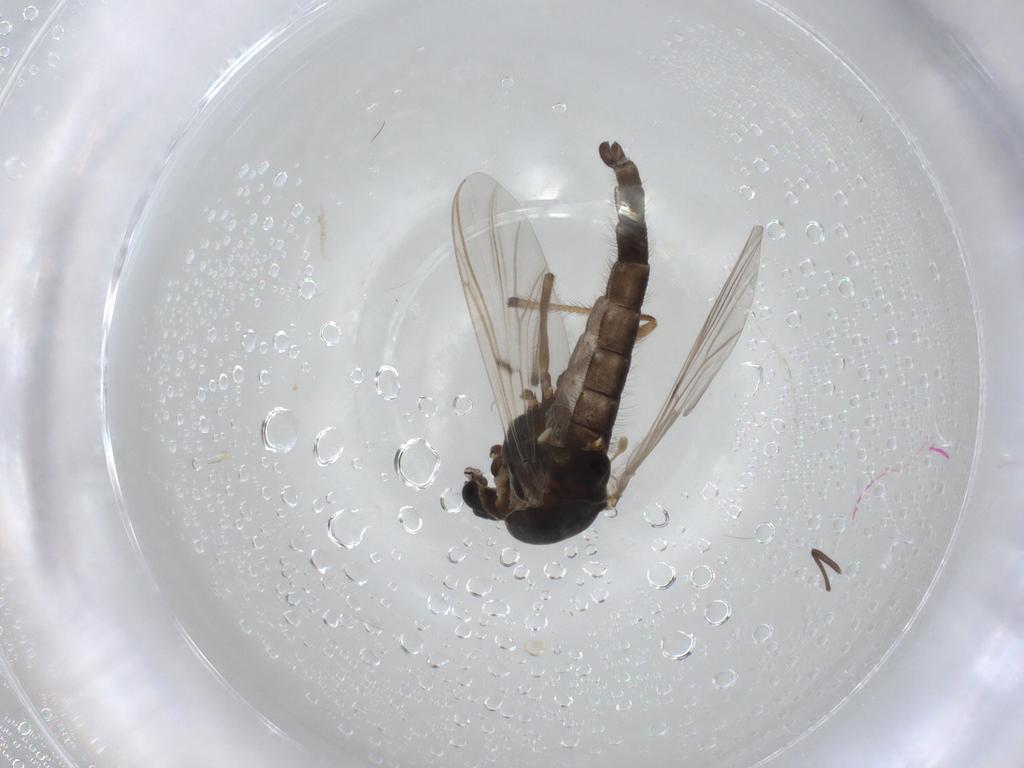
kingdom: Animalia
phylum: Arthropoda
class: Insecta
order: Diptera
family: Chironomidae
